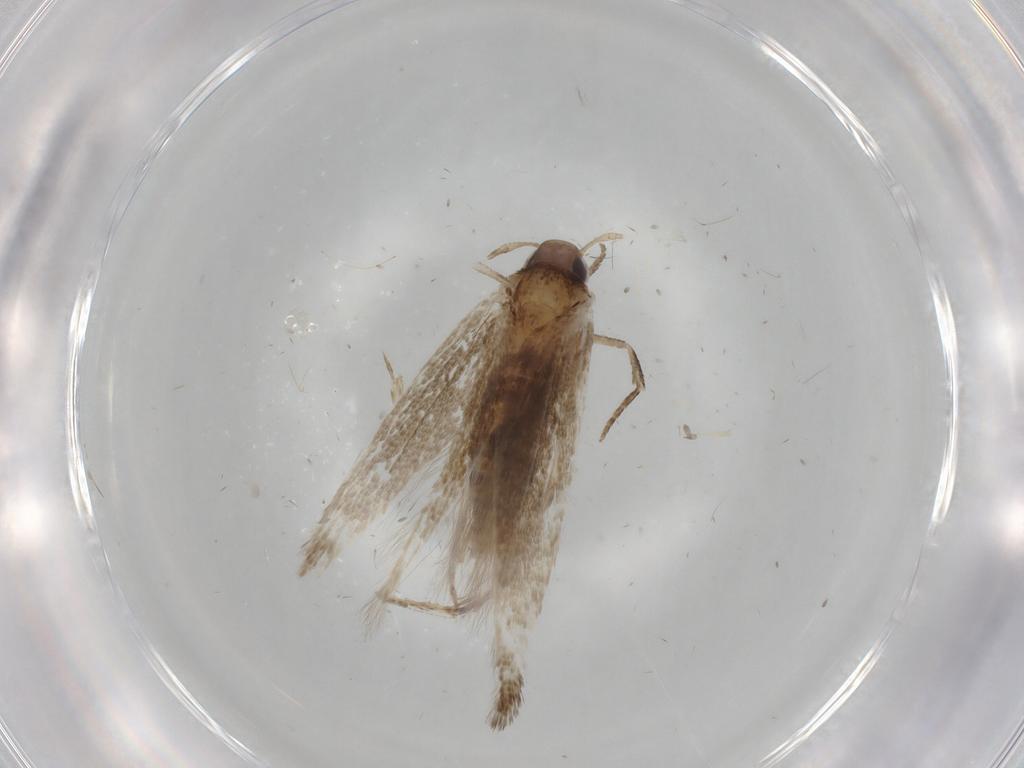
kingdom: Animalia
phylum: Arthropoda
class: Insecta
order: Lepidoptera
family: Cosmopterigidae
